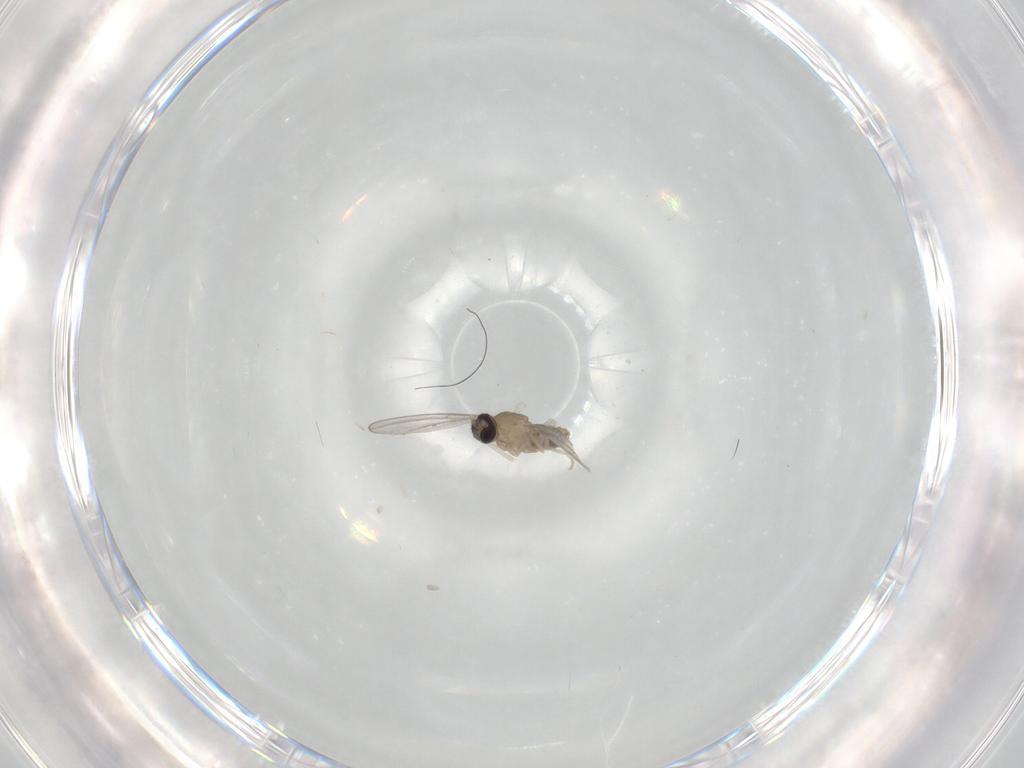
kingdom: Animalia
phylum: Arthropoda
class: Insecta
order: Diptera
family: Cecidomyiidae
